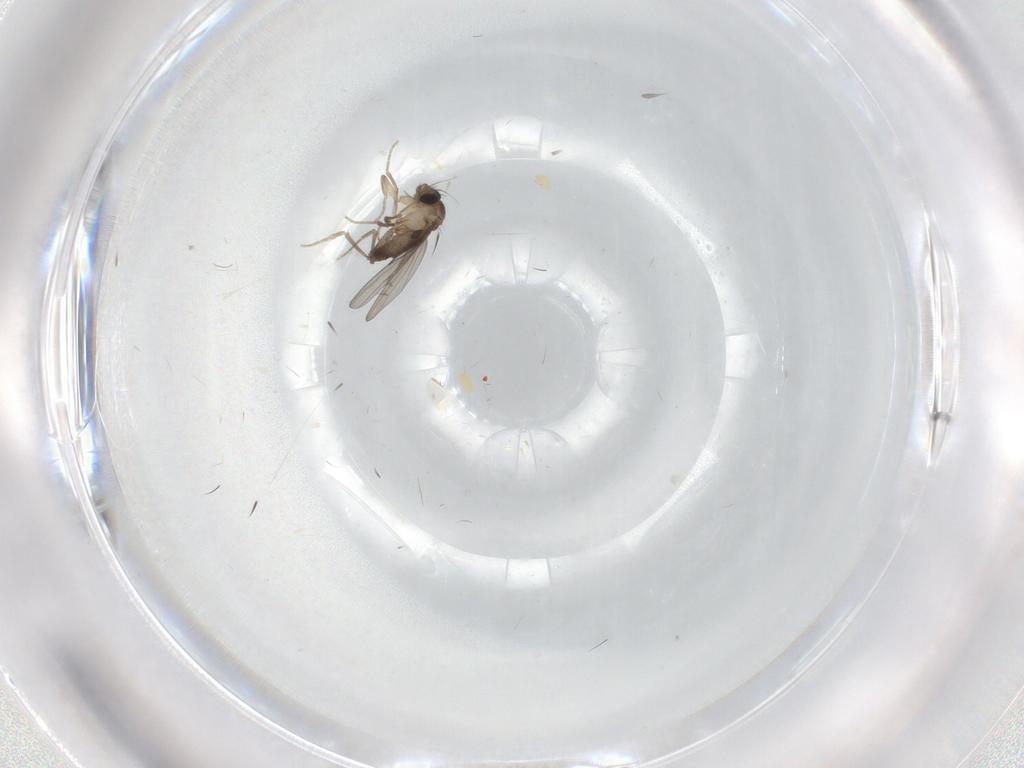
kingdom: Animalia
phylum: Arthropoda
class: Insecta
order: Diptera
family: Phoridae
